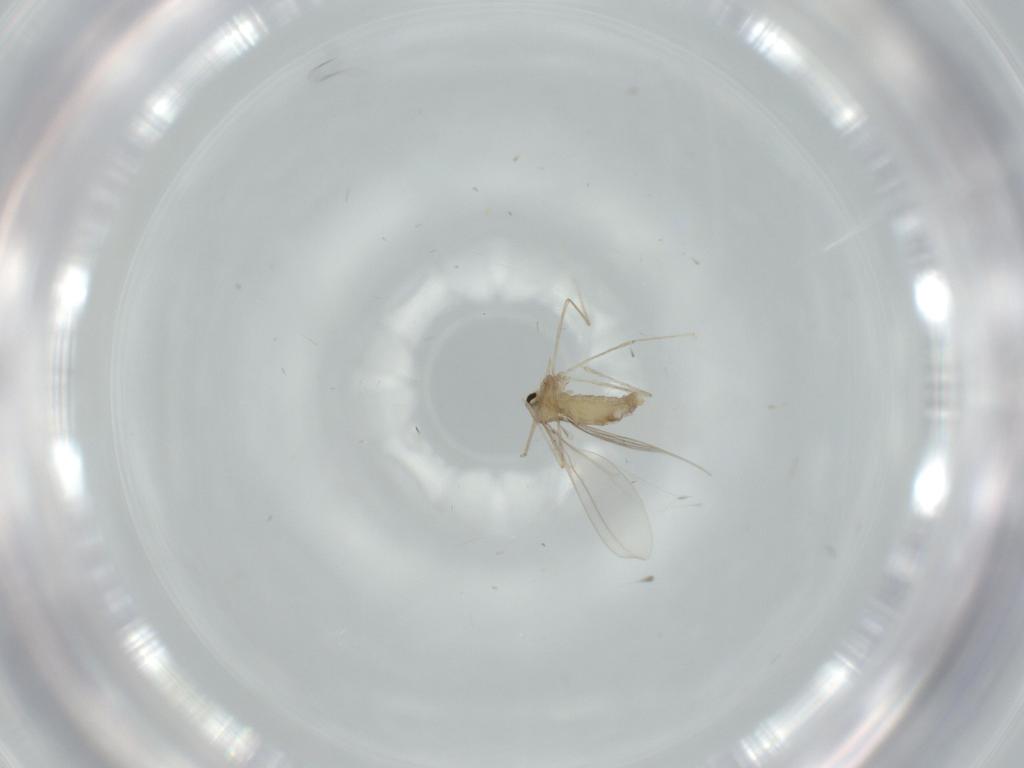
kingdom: Animalia
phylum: Arthropoda
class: Insecta
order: Diptera
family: Cecidomyiidae
